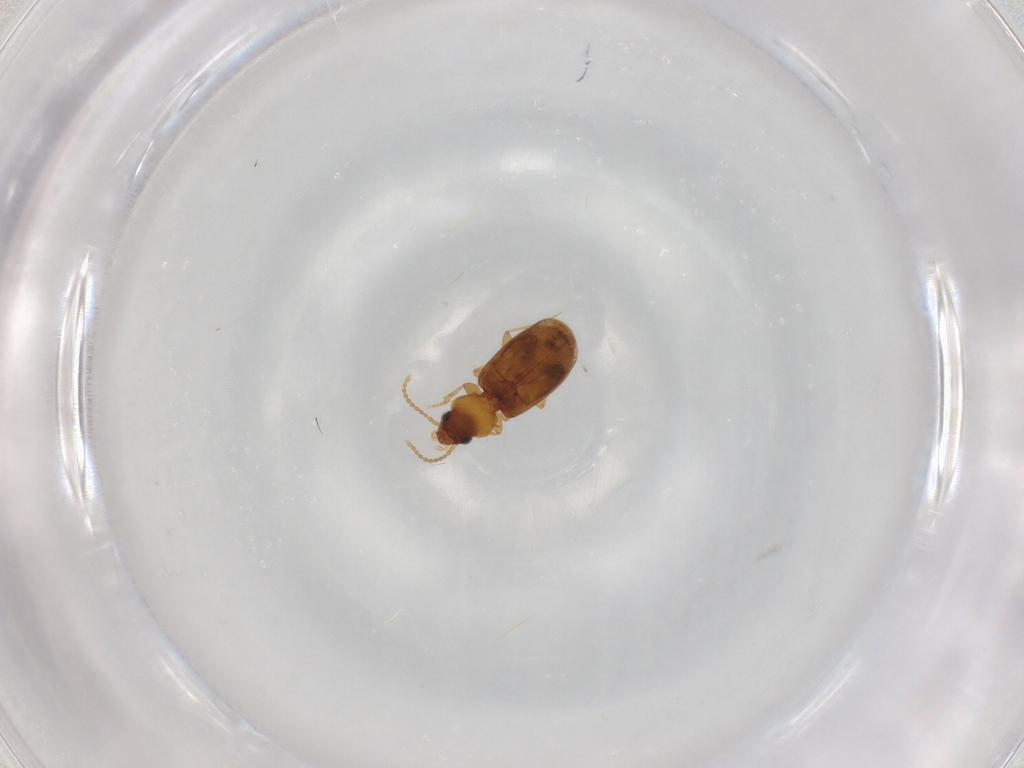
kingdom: Animalia
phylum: Arthropoda
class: Insecta
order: Coleoptera
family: Carabidae
